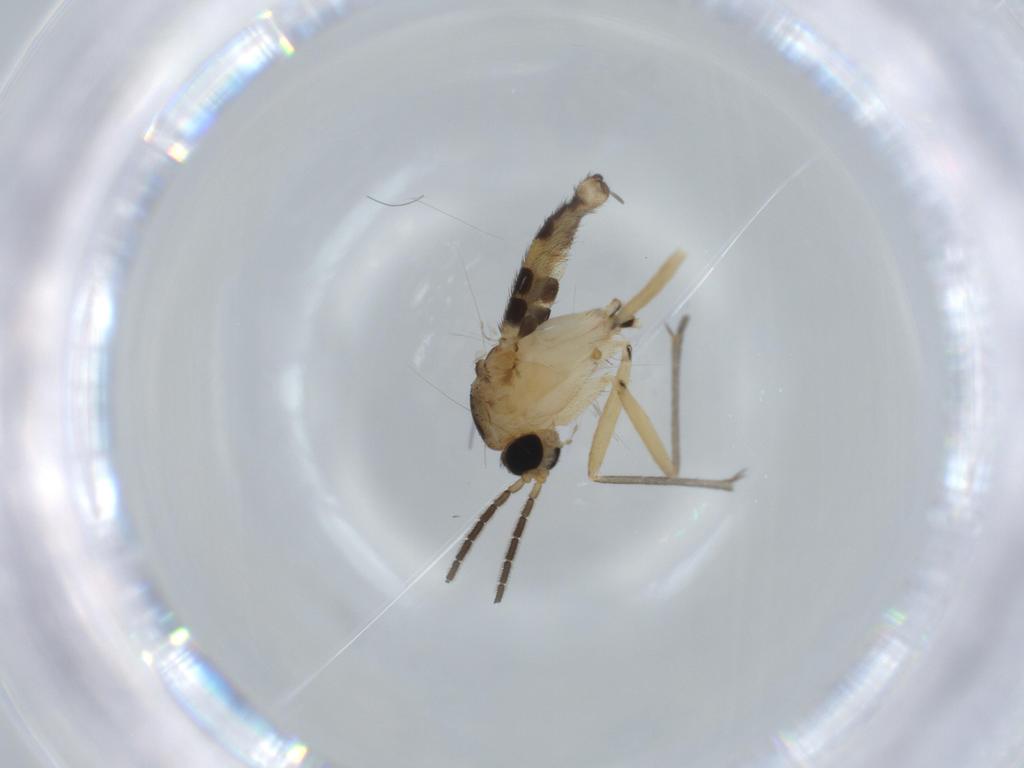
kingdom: Animalia
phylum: Arthropoda
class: Insecta
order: Diptera
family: Sciaridae
